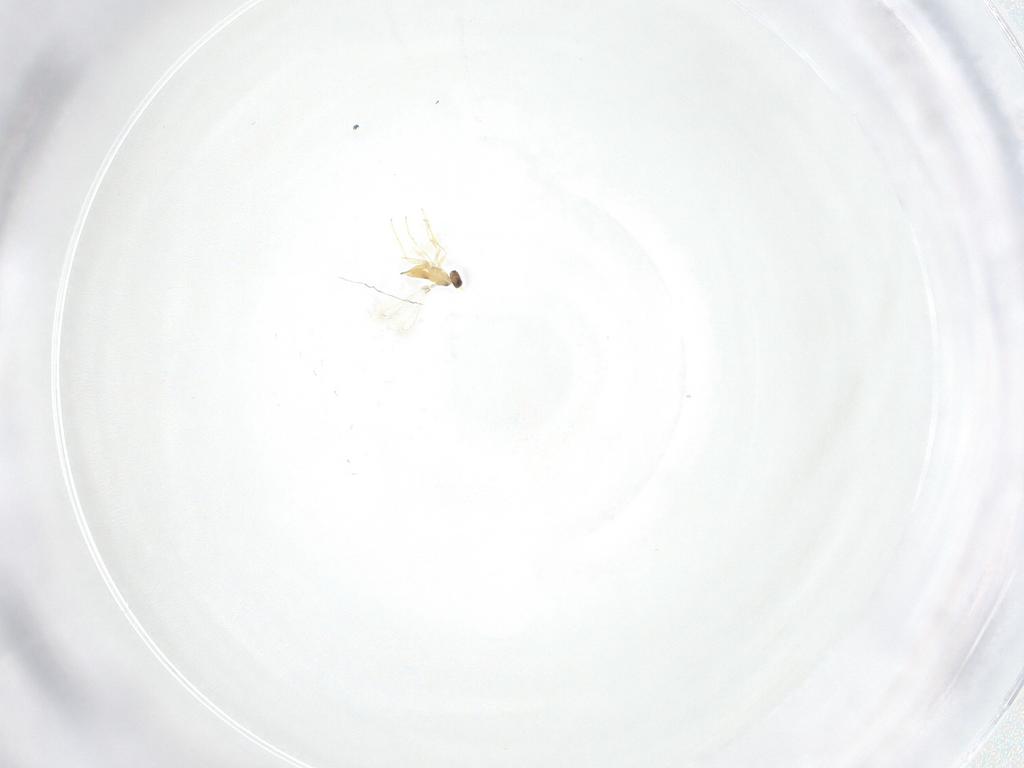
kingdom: Animalia
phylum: Arthropoda
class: Insecta
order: Hymenoptera
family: Mymaridae
